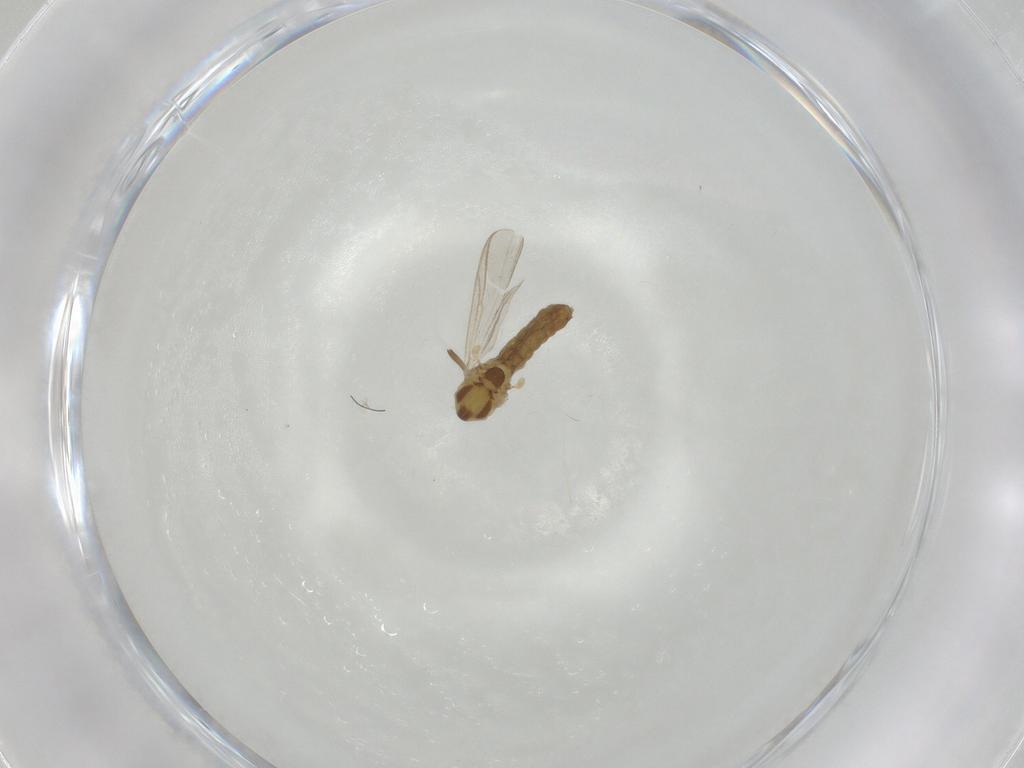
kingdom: Animalia
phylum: Arthropoda
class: Insecta
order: Diptera
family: Chironomidae
